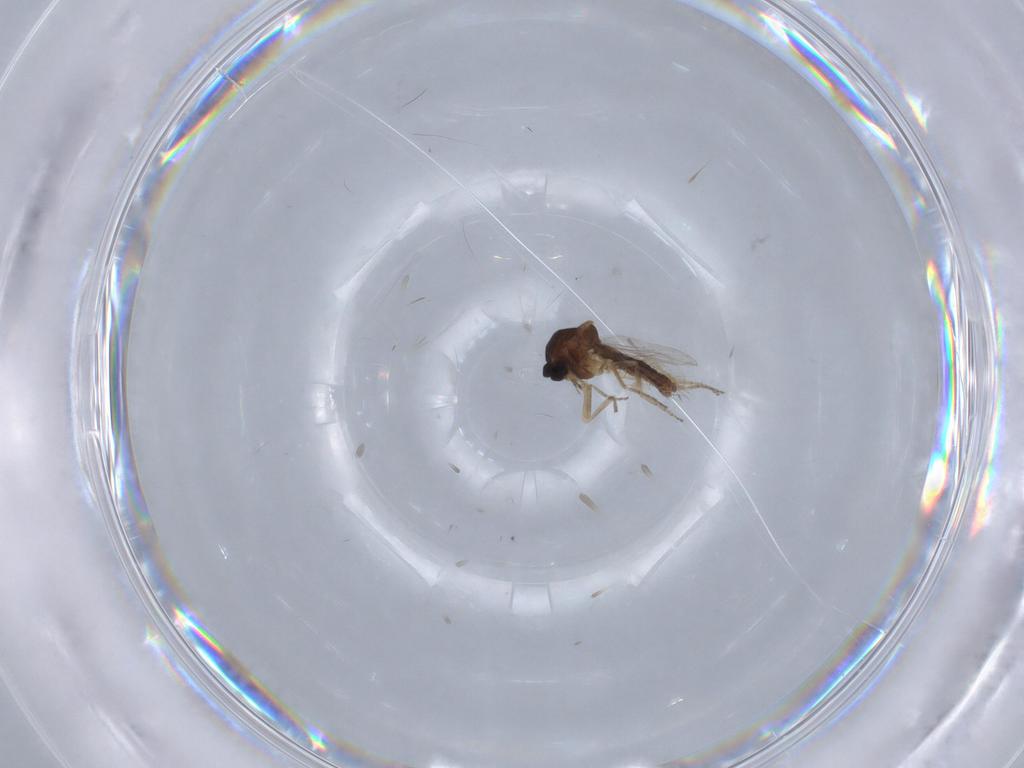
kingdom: Animalia
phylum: Arthropoda
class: Insecta
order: Diptera
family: Ceratopogonidae
